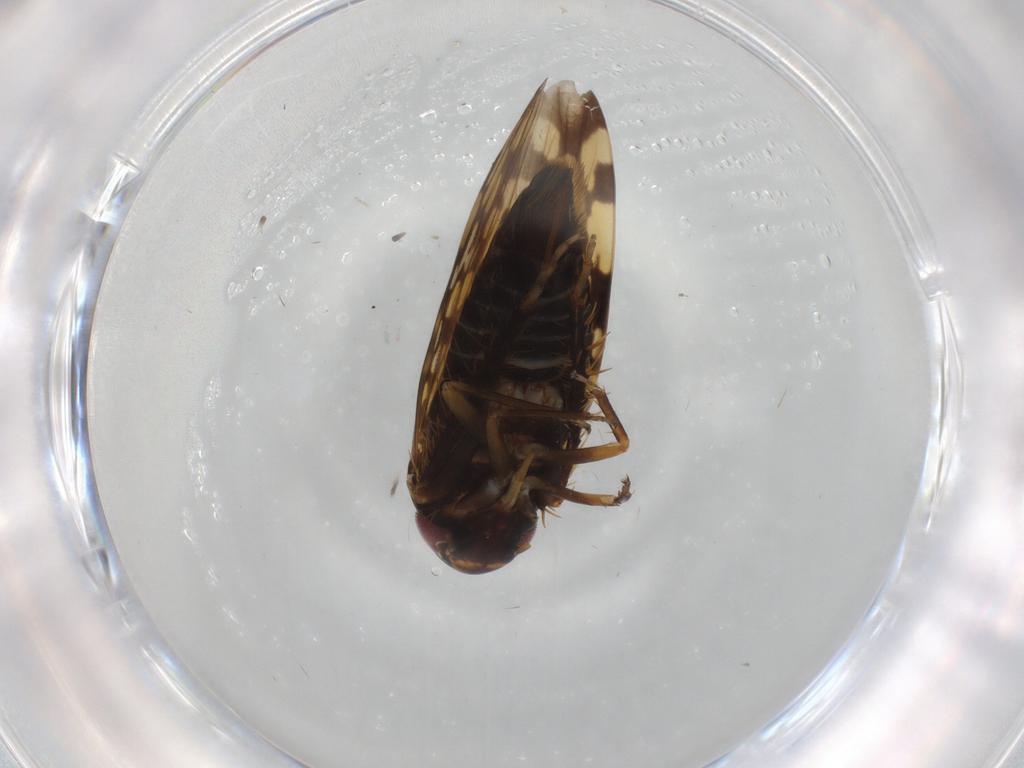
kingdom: Animalia
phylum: Arthropoda
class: Insecta
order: Hemiptera
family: Cicadellidae
